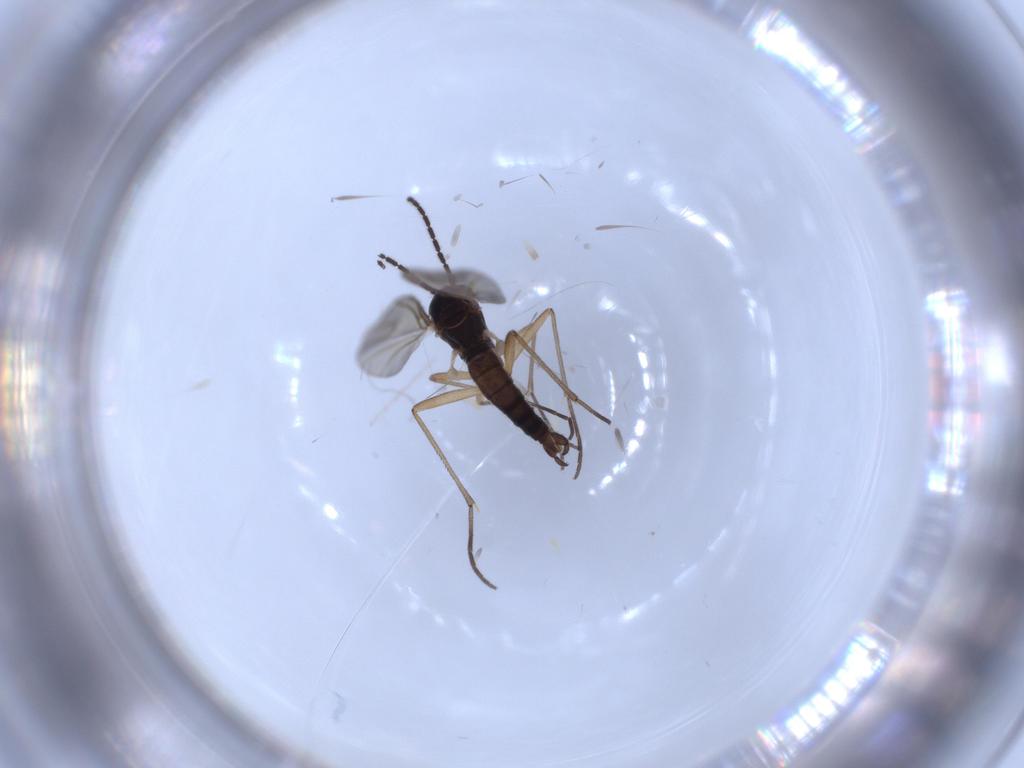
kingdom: Animalia
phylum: Arthropoda
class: Insecta
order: Diptera
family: Sciaridae
